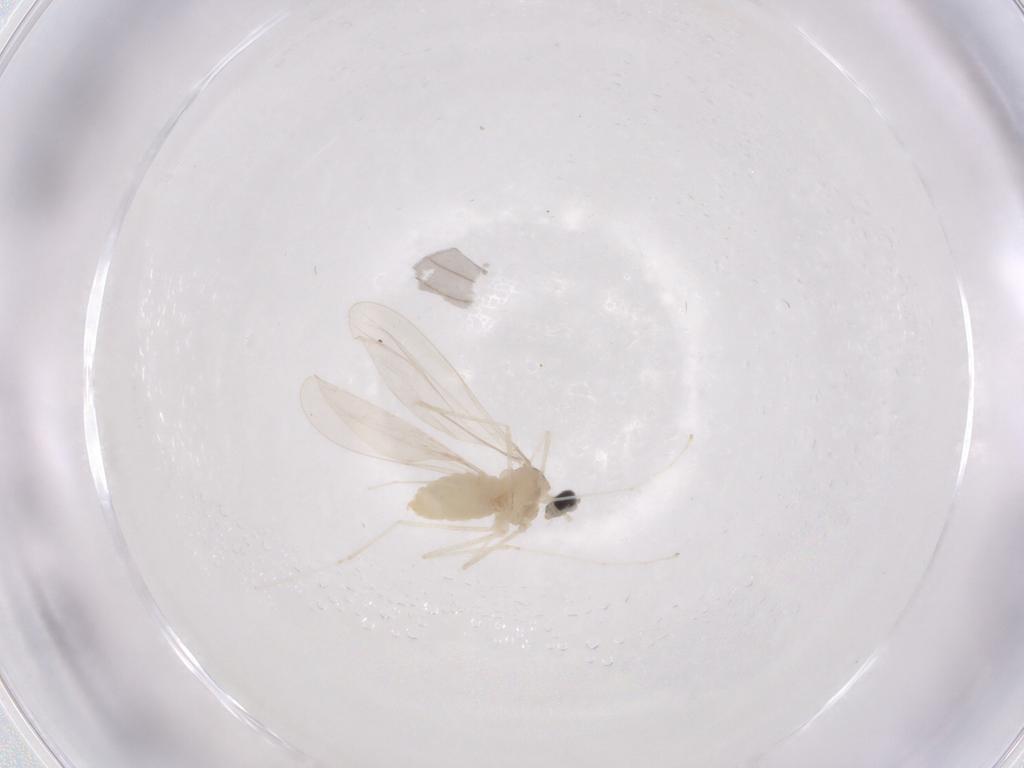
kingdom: Animalia
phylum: Arthropoda
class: Insecta
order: Diptera
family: Cecidomyiidae
